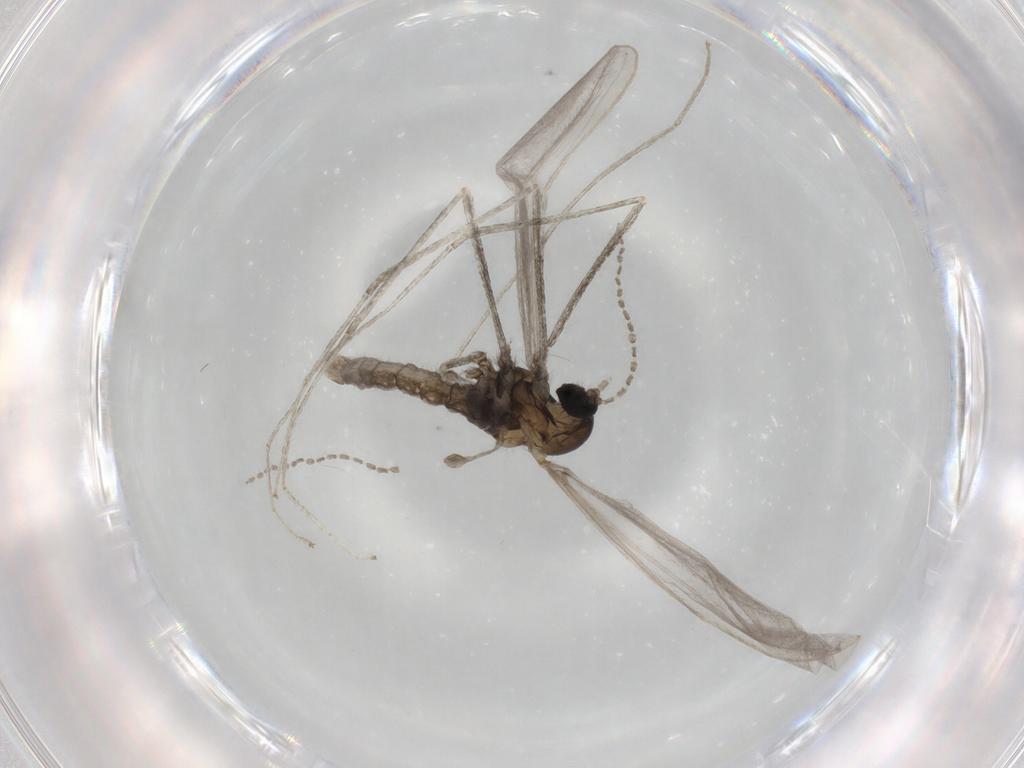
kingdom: Animalia
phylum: Arthropoda
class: Insecta
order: Diptera
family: Cecidomyiidae
